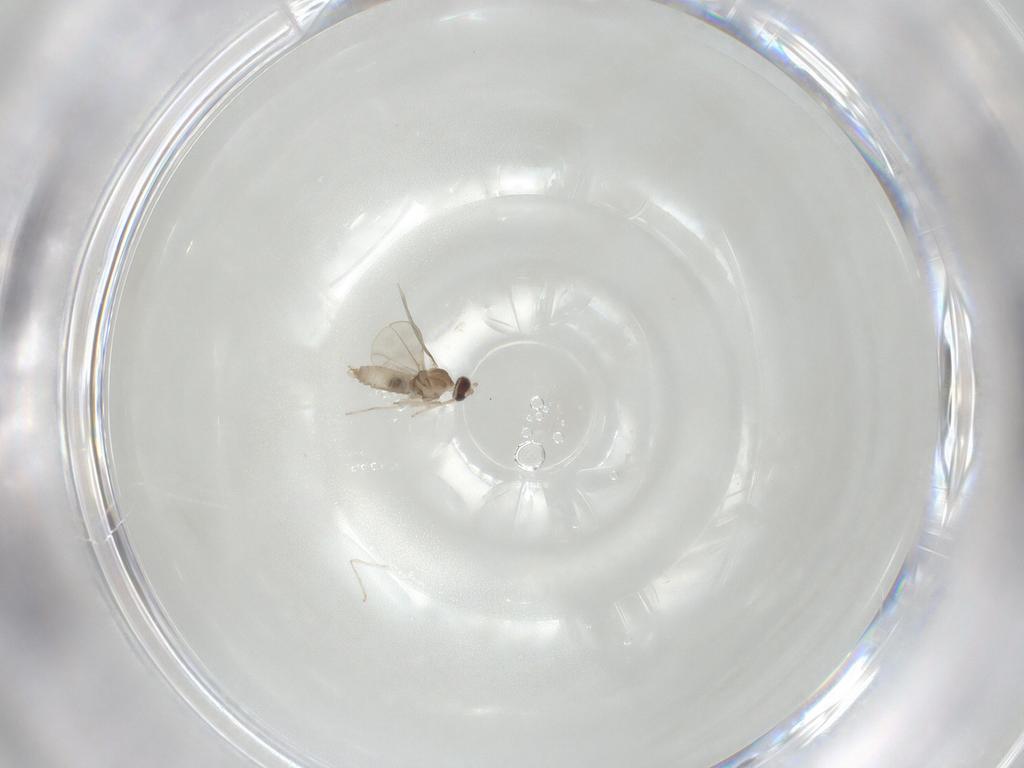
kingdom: Animalia
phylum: Arthropoda
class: Insecta
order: Diptera
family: Cecidomyiidae
